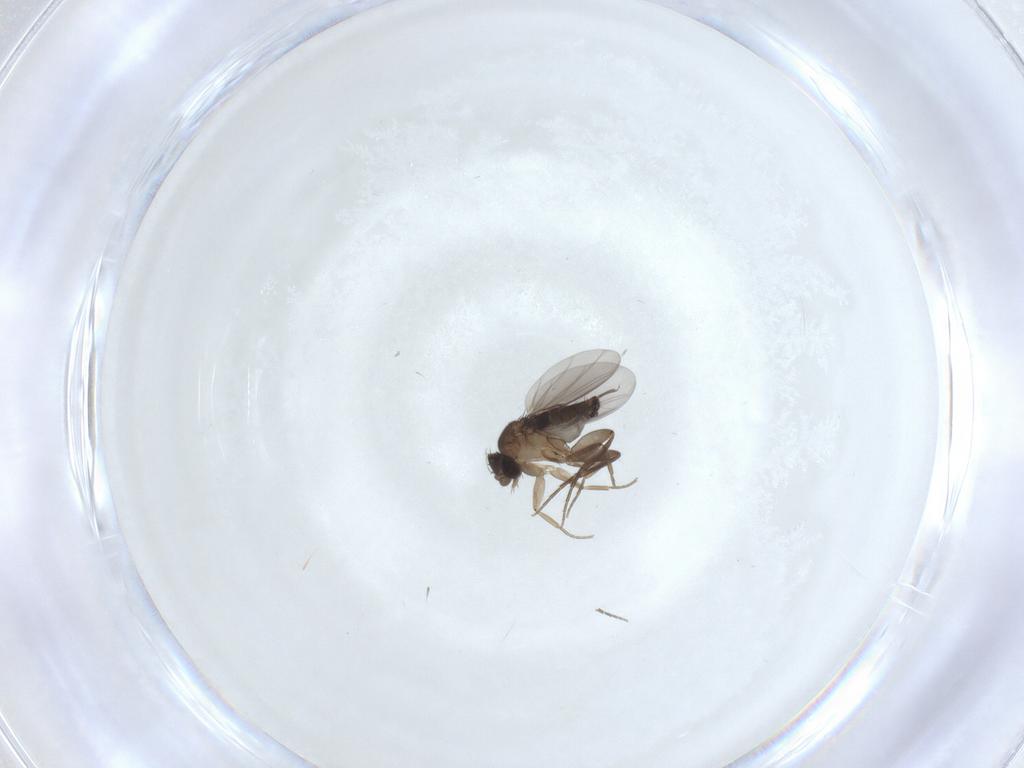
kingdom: Animalia
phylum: Arthropoda
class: Insecta
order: Diptera
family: Phoridae
